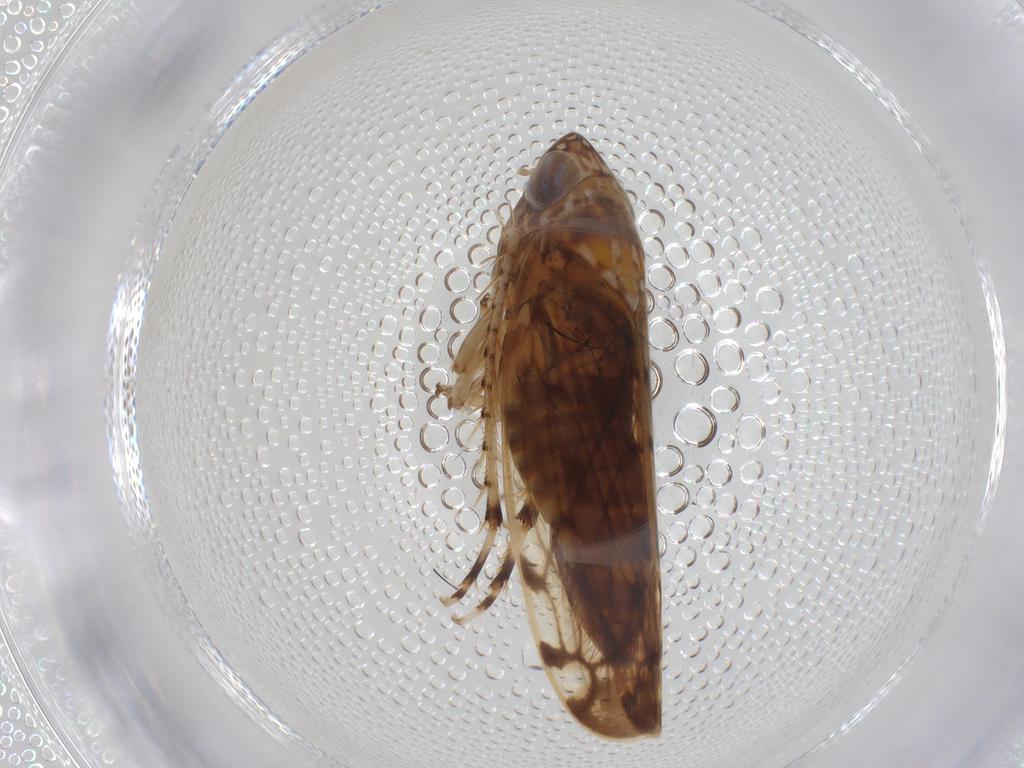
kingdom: Animalia
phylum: Arthropoda
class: Insecta
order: Hemiptera
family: Cicadellidae
